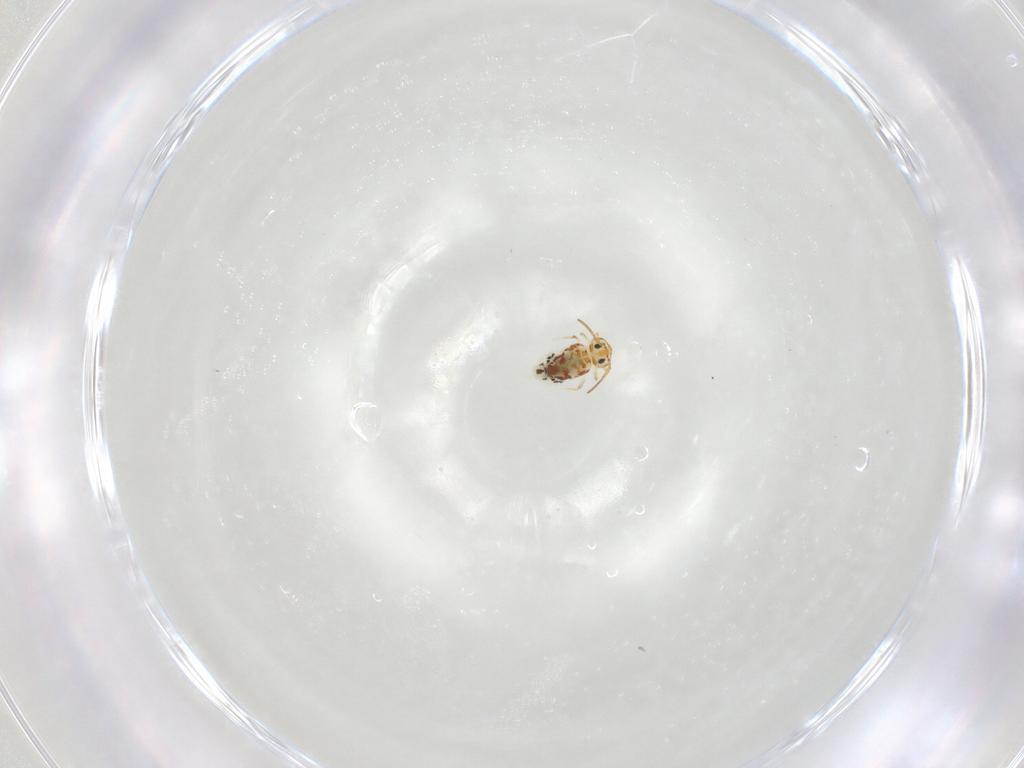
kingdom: Animalia
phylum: Arthropoda
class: Collembola
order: Symphypleona
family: Bourletiellidae
